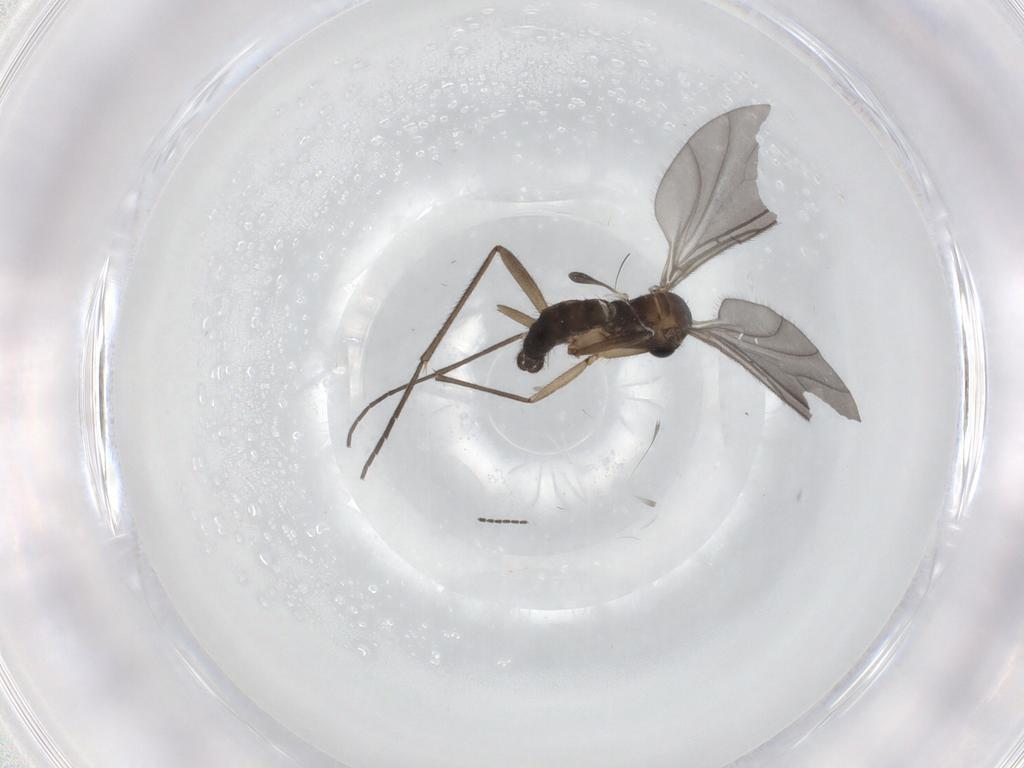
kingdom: Animalia
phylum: Arthropoda
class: Insecta
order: Diptera
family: Sciaridae
